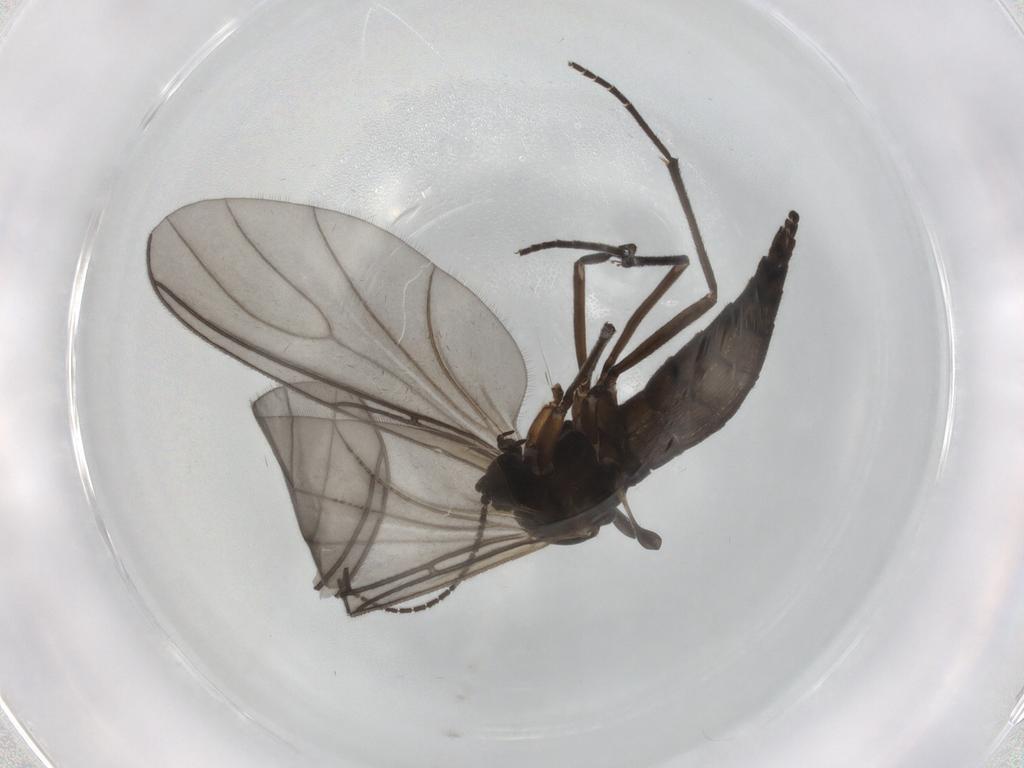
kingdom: Animalia
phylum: Arthropoda
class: Insecta
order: Diptera
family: Sciaridae
